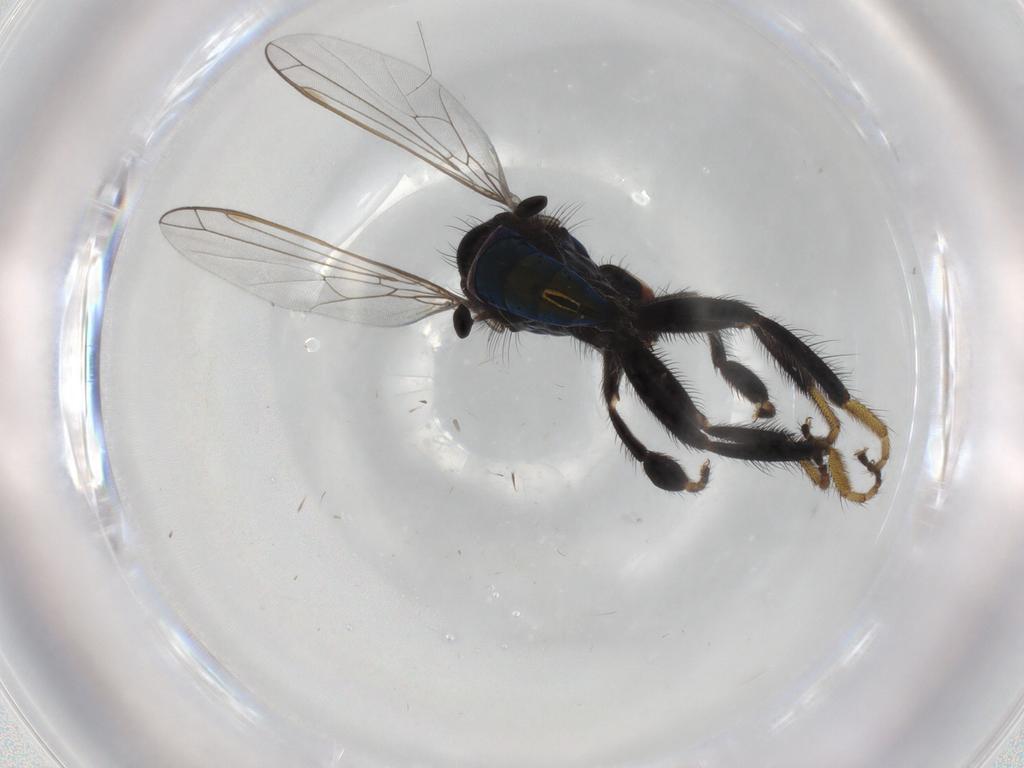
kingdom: Animalia
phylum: Arthropoda
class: Insecta
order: Diptera
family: Empididae
